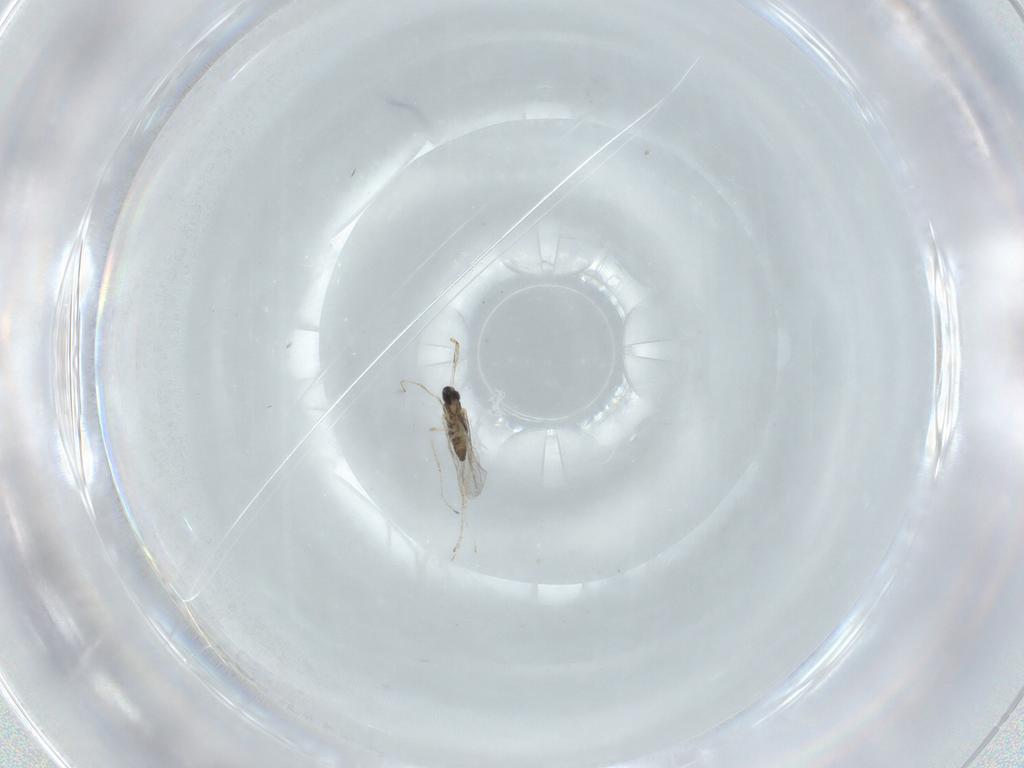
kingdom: Animalia
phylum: Arthropoda
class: Insecta
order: Diptera
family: Cecidomyiidae
